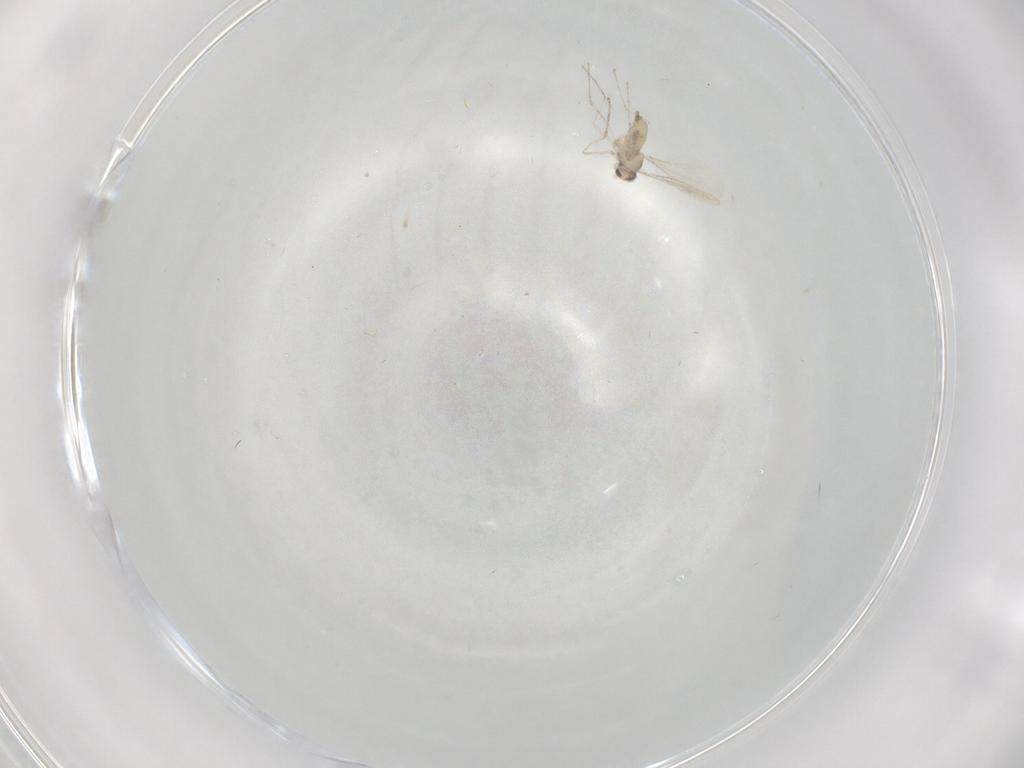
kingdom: Animalia
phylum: Arthropoda
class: Insecta
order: Diptera
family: Cecidomyiidae
